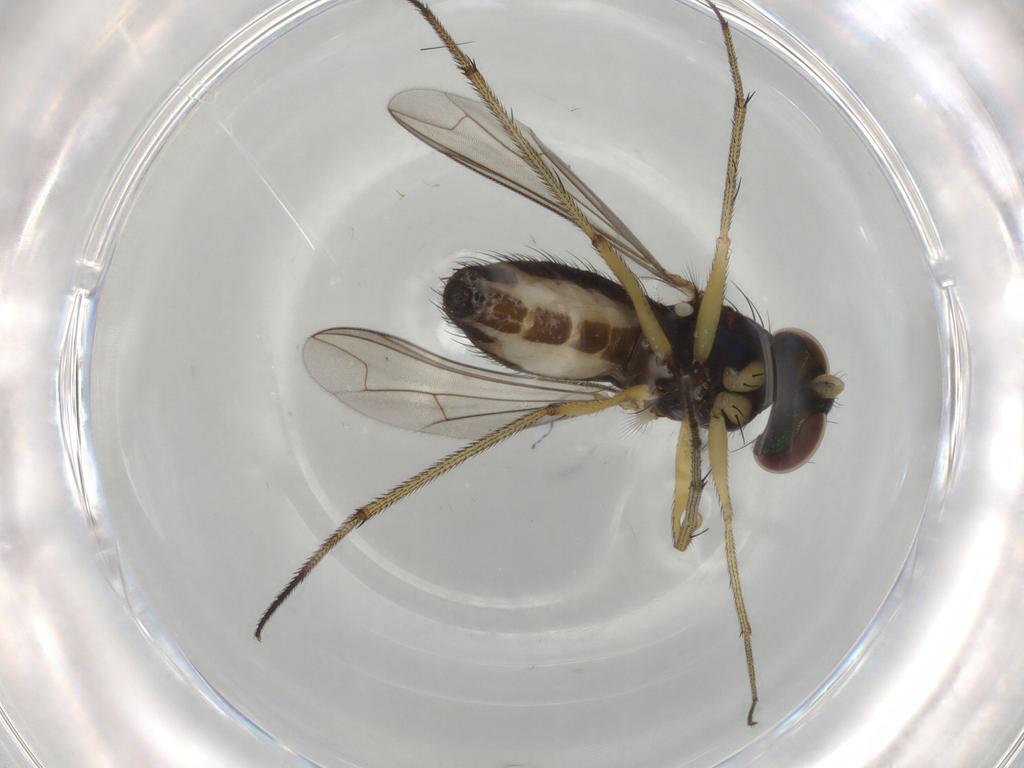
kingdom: Animalia
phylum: Arthropoda
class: Insecta
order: Diptera
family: Dolichopodidae
